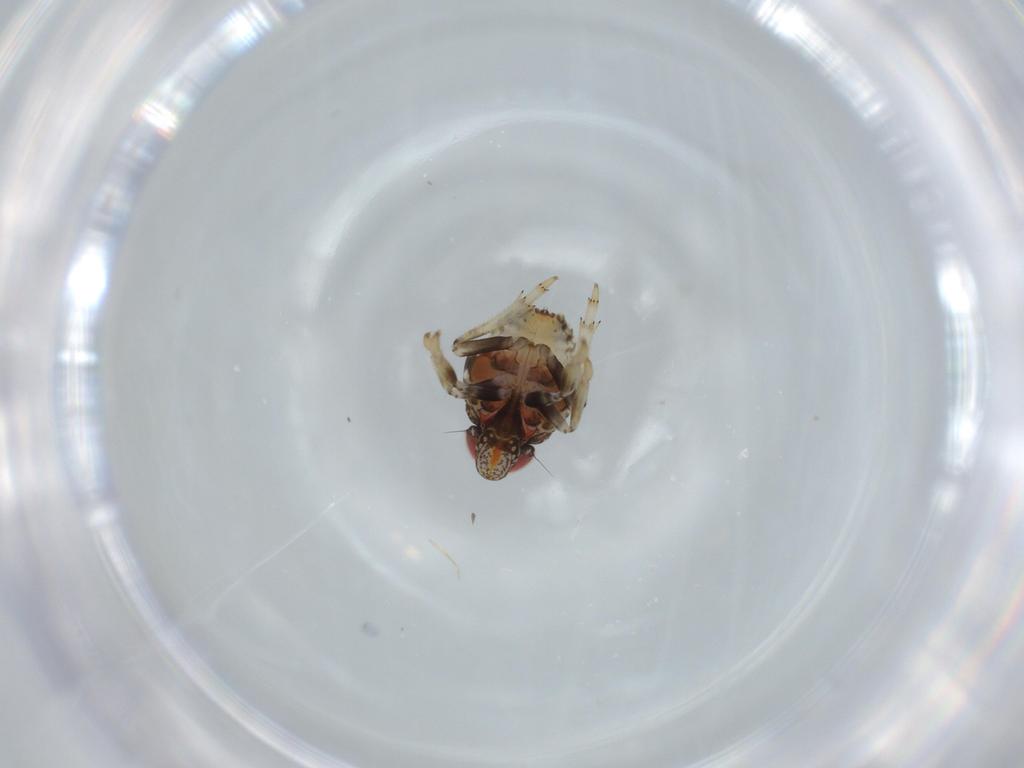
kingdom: Animalia
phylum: Arthropoda
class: Insecta
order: Hemiptera
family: Issidae
